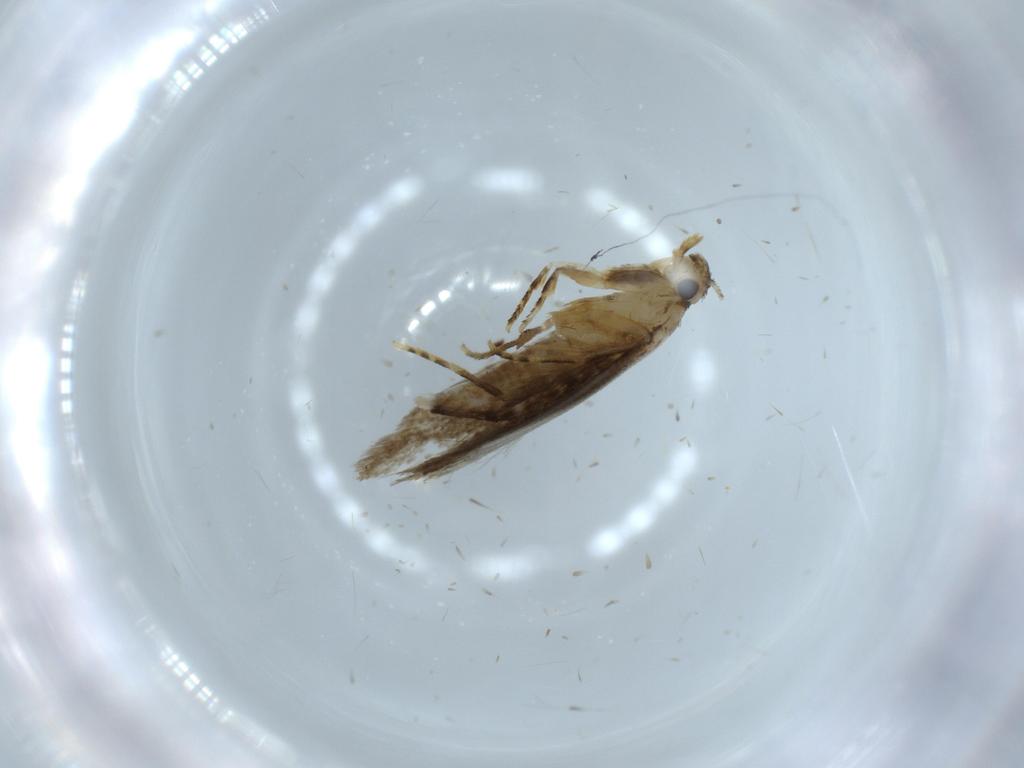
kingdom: Animalia
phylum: Arthropoda
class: Insecta
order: Lepidoptera
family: Tineidae
